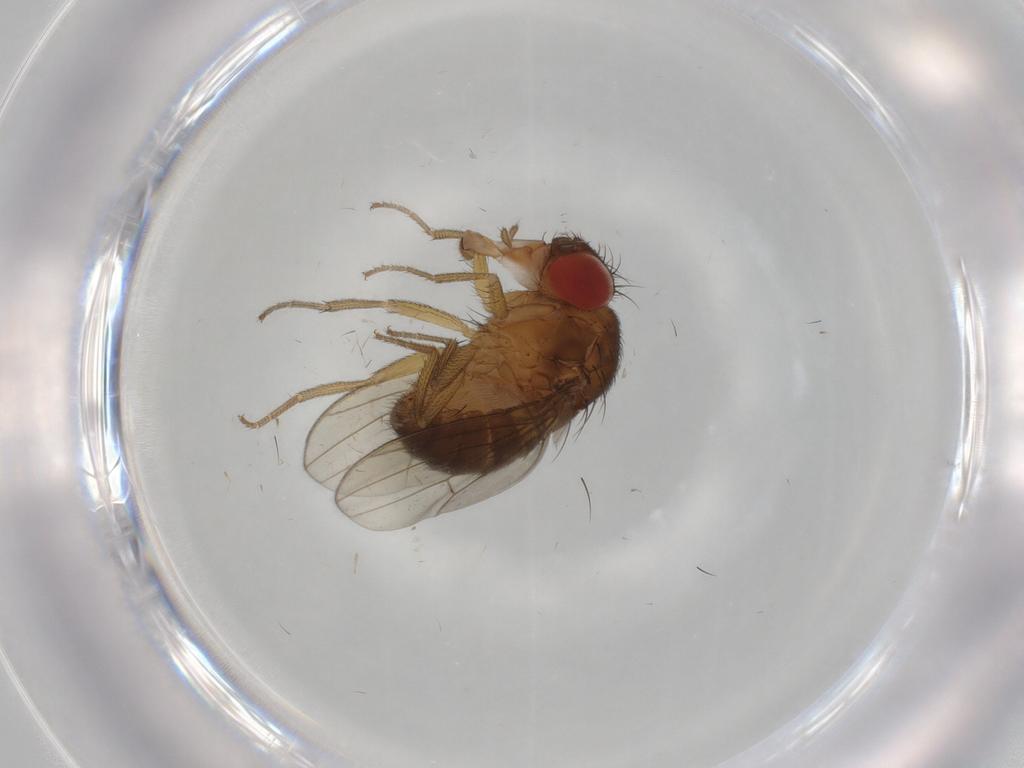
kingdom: Animalia
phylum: Arthropoda
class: Insecta
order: Diptera
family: Drosophilidae
